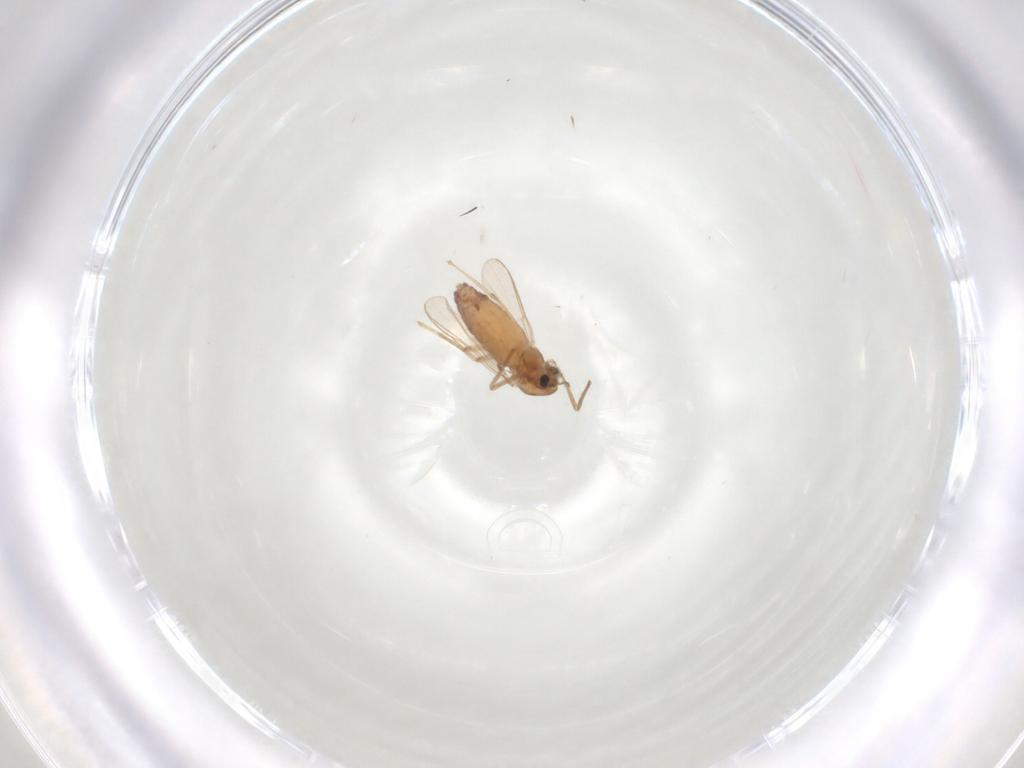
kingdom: Animalia
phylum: Arthropoda
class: Insecta
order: Diptera
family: Chironomidae
